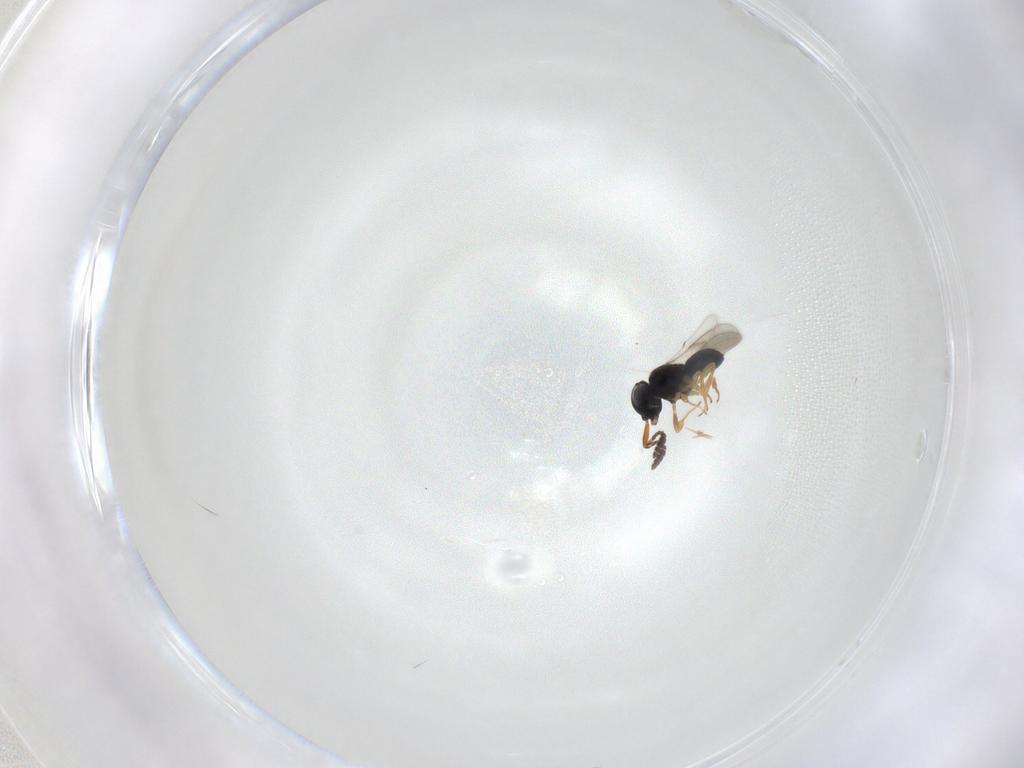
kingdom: Animalia
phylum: Arthropoda
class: Insecta
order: Hymenoptera
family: Scelionidae
